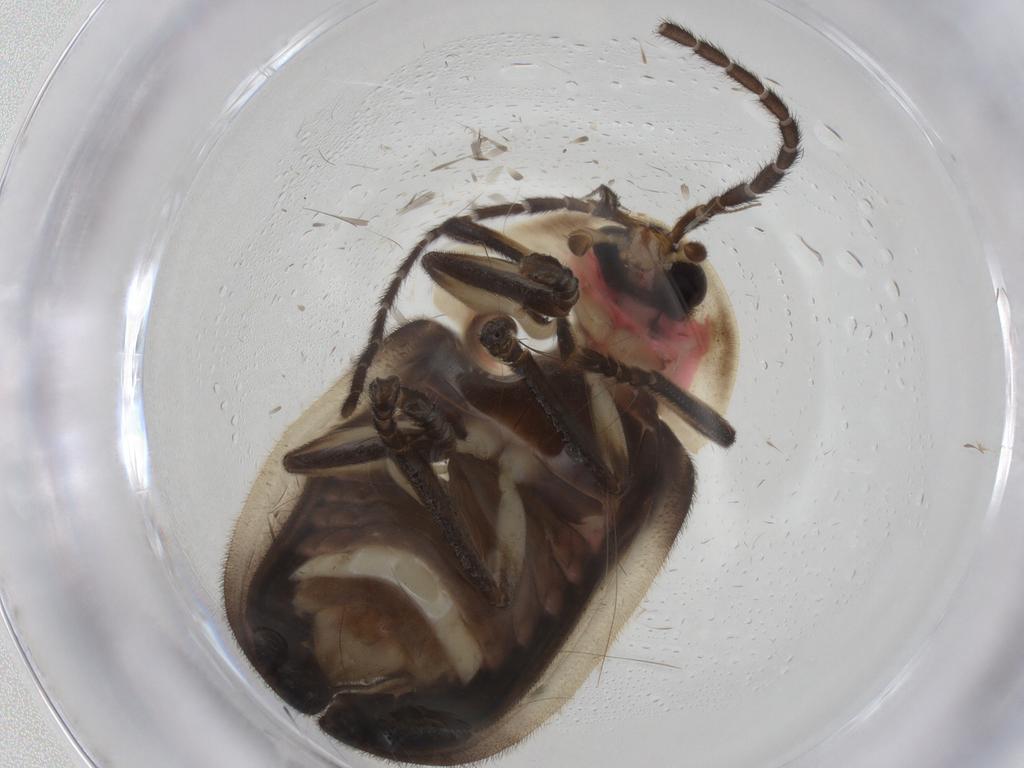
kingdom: Animalia
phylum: Arthropoda
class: Insecta
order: Coleoptera
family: Lampyridae
